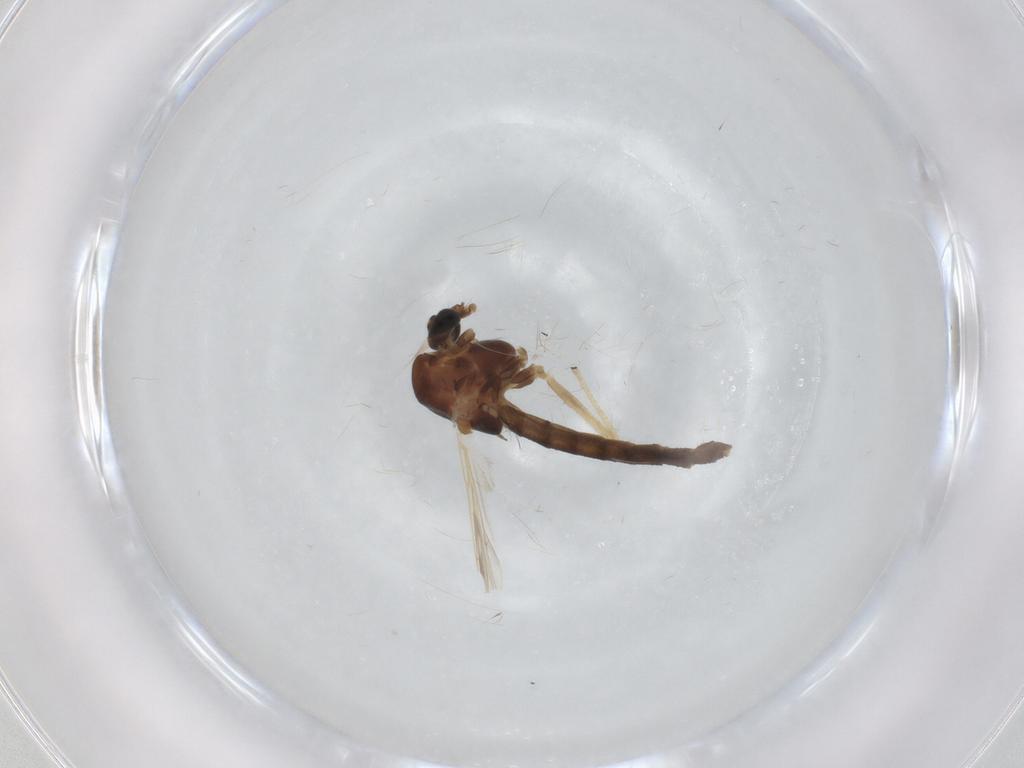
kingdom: Animalia
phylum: Arthropoda
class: Insecta
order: Diptera
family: Chironomidae
